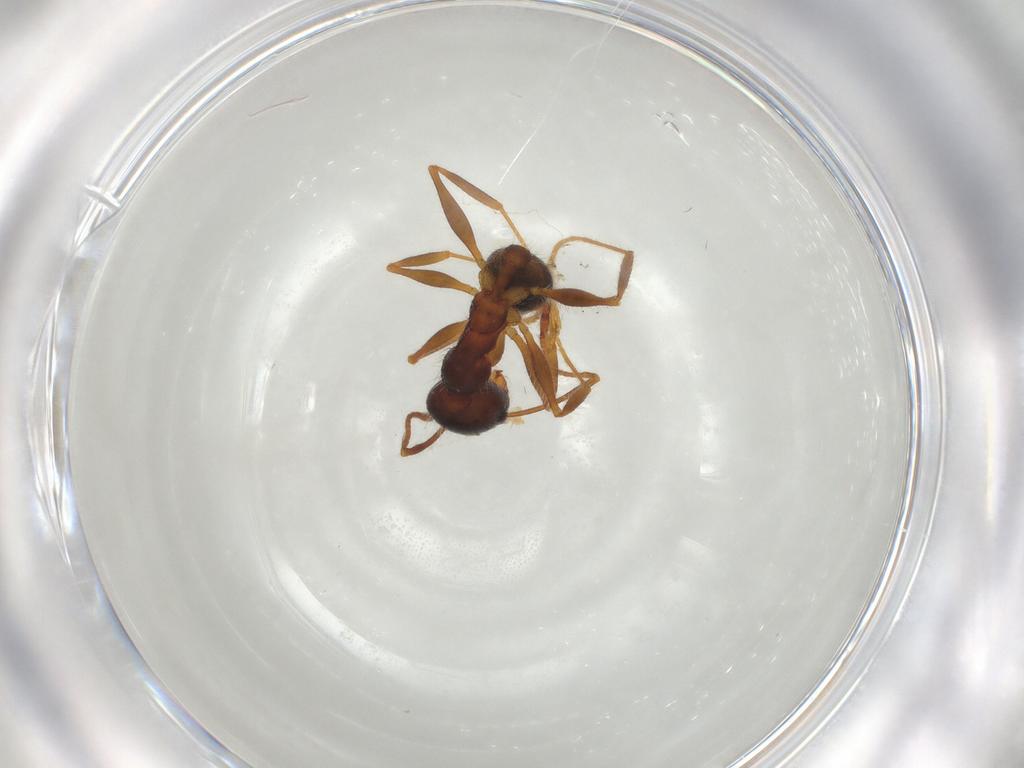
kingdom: Animalia
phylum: Arthropoda
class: Insecta
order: Hymenoptera
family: Formicidae
